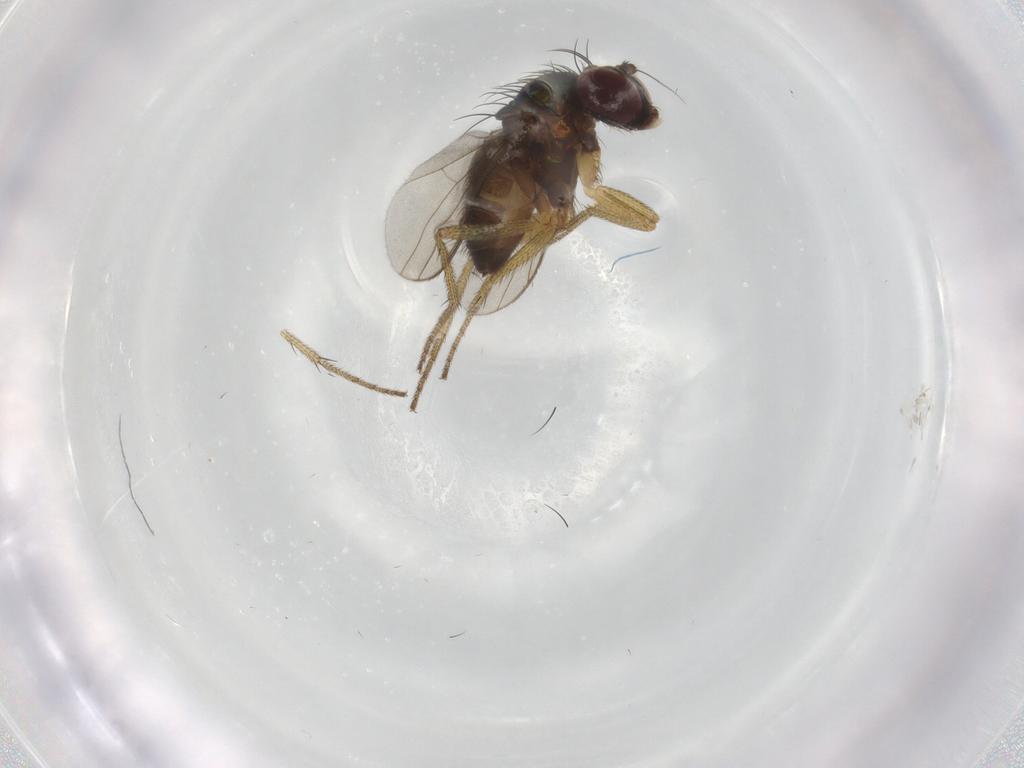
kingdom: Animalia
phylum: Arthropoda
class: Insecta
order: Diptera
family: Dolichopodidae
